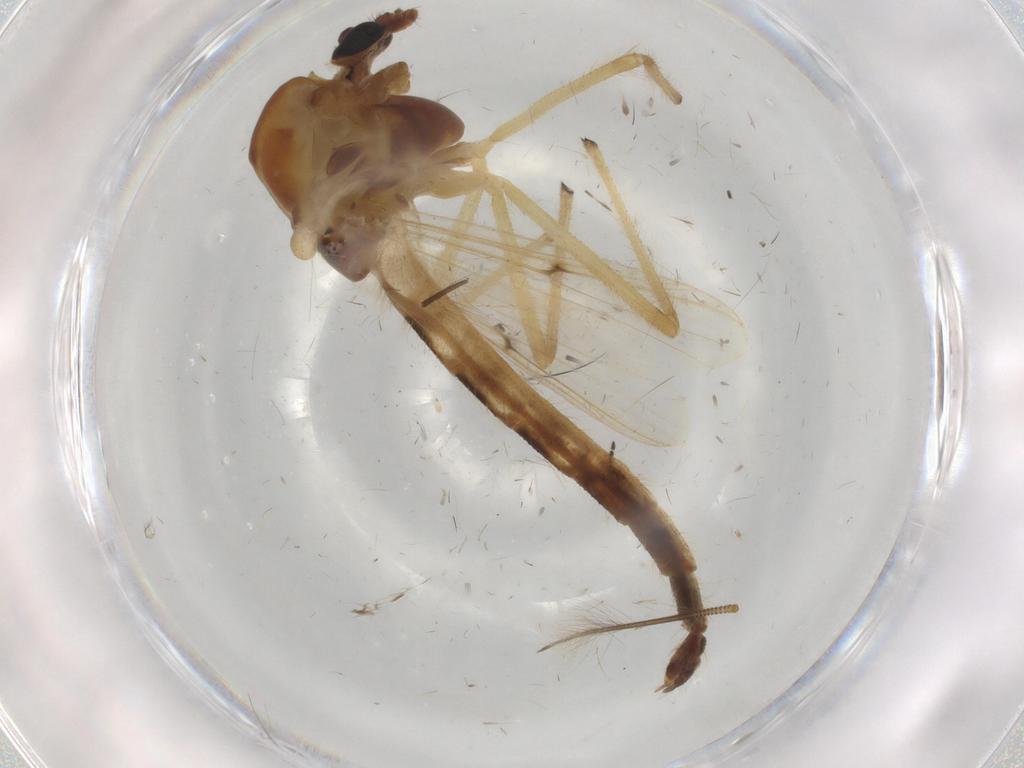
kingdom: Animalia
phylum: Arthropoda
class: Insecta
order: Diptera
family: Chironomidae
